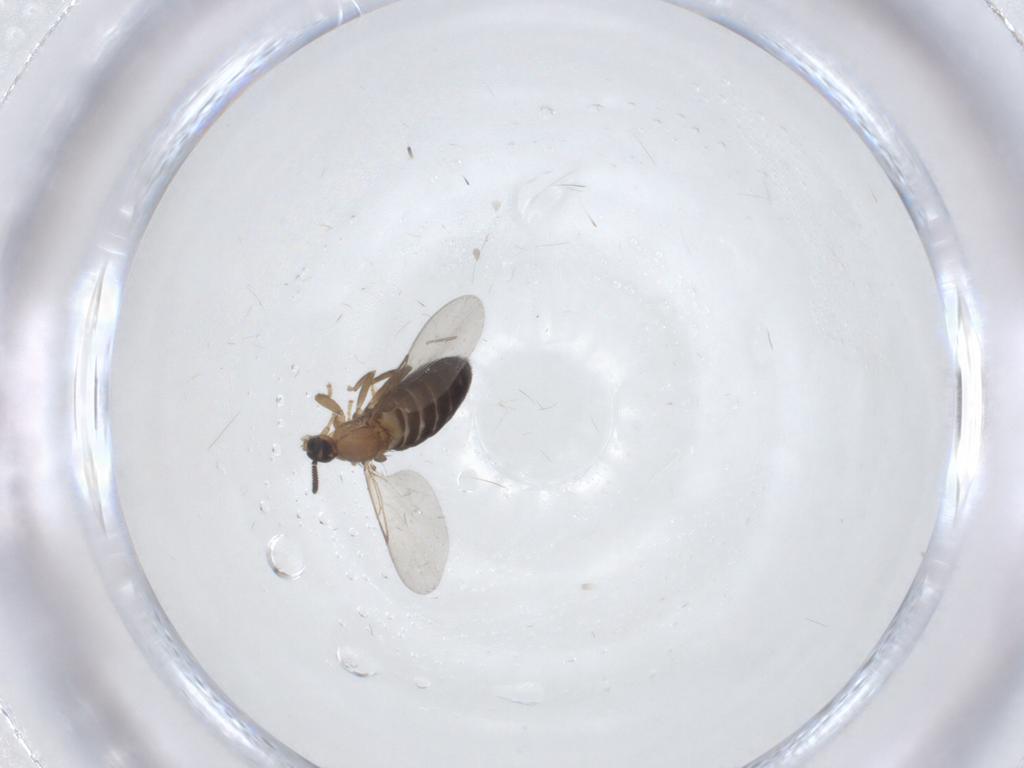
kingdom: Animalia
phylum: Arthropoda
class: Insecta
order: Diptera
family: Scatopsidae
